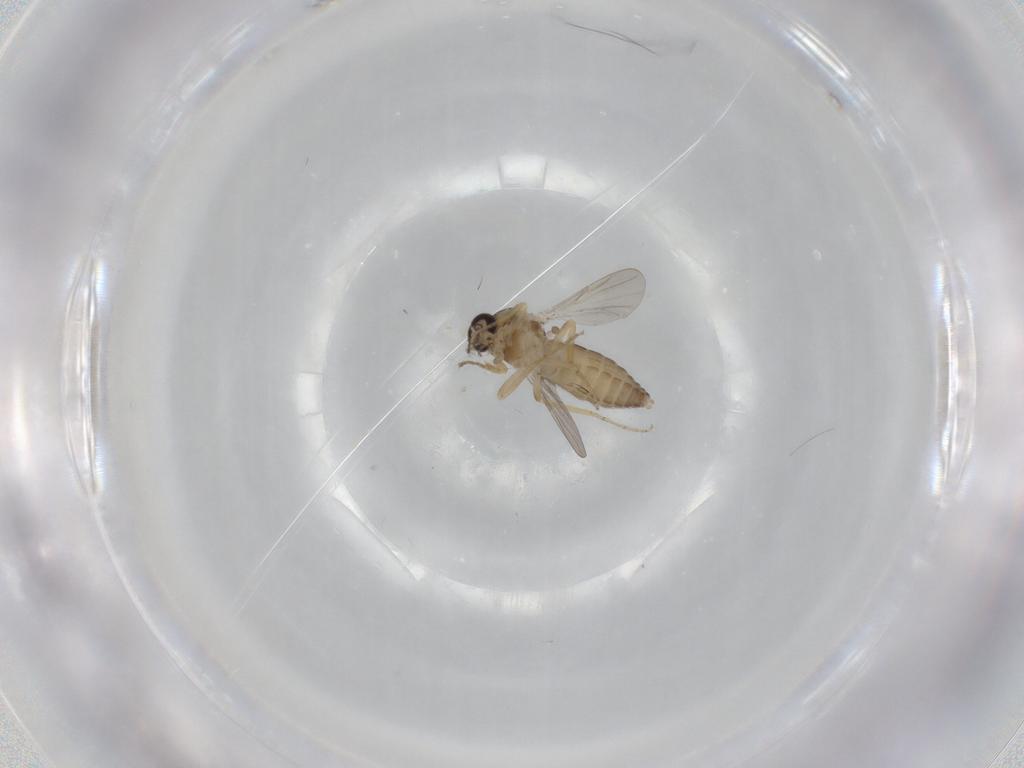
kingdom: Animalia
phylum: Arthropoda
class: Insecta
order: Diptera
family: Ceratopogonidae
